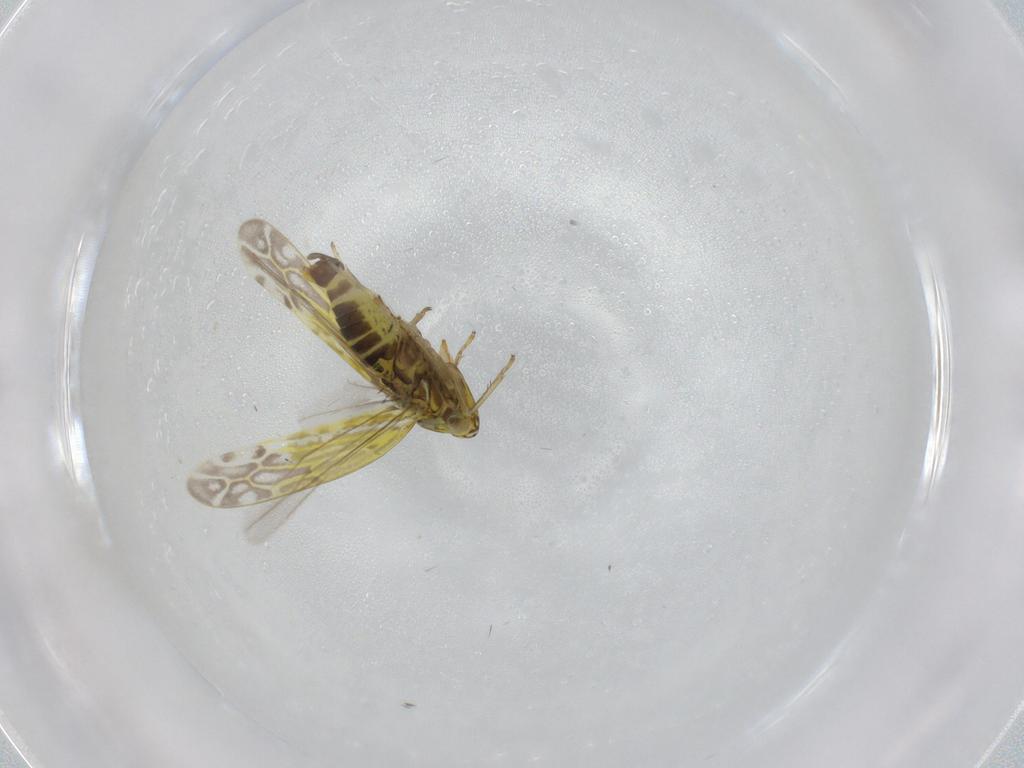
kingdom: Animalia
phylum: Arthropoda
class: Insecta
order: Hemiptera
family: Cicadellidae
